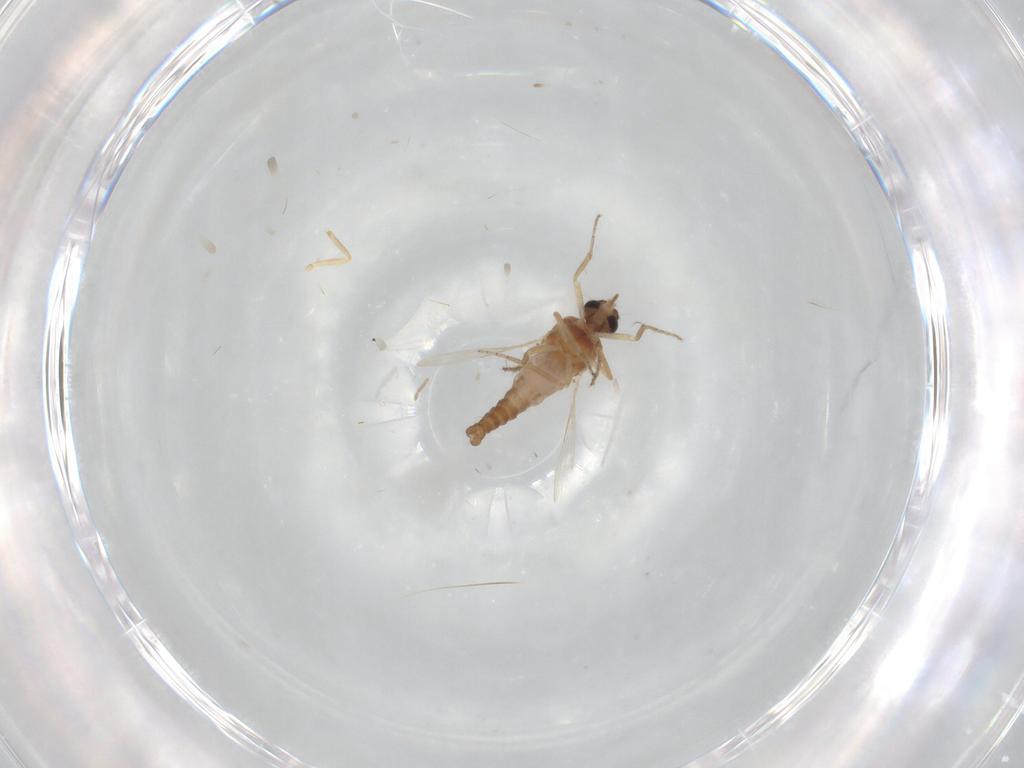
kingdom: Animalia
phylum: Arthropoda
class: Insecta
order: Diptera
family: Ceratopogonidae
